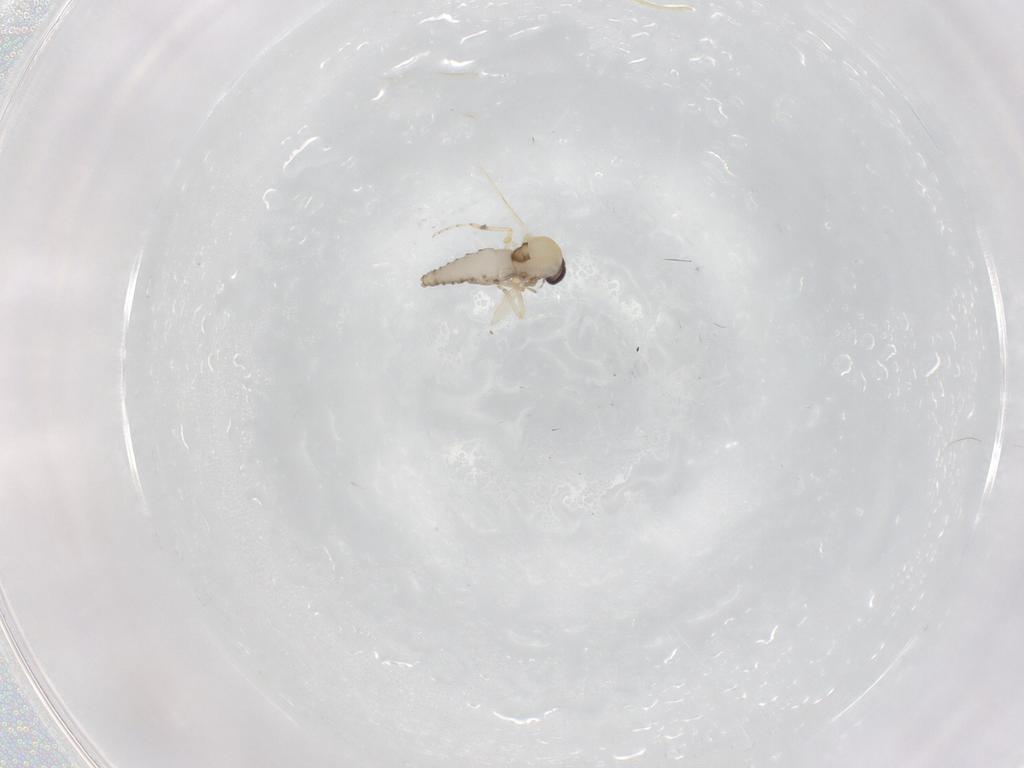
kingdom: Animalia
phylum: Arthropoda
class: Insecta
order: Diptera
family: Ceratopogonidae
